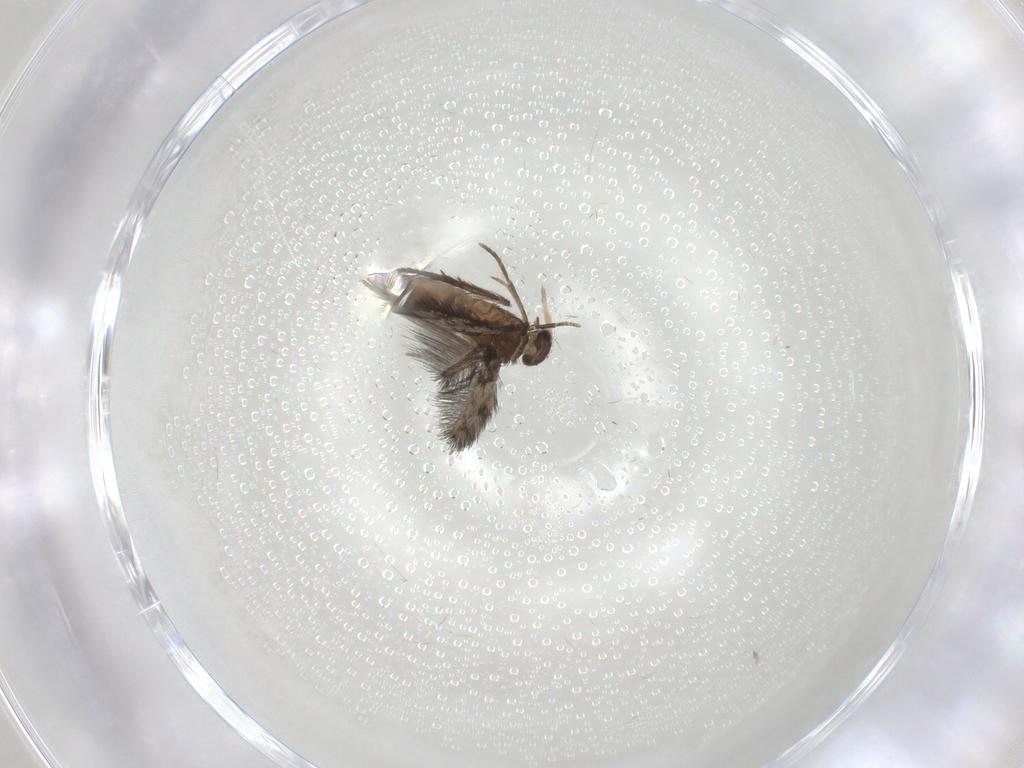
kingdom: Animalia
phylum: Arthropoda
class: Insecta
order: Trichoptera
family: Hydroptilidae
